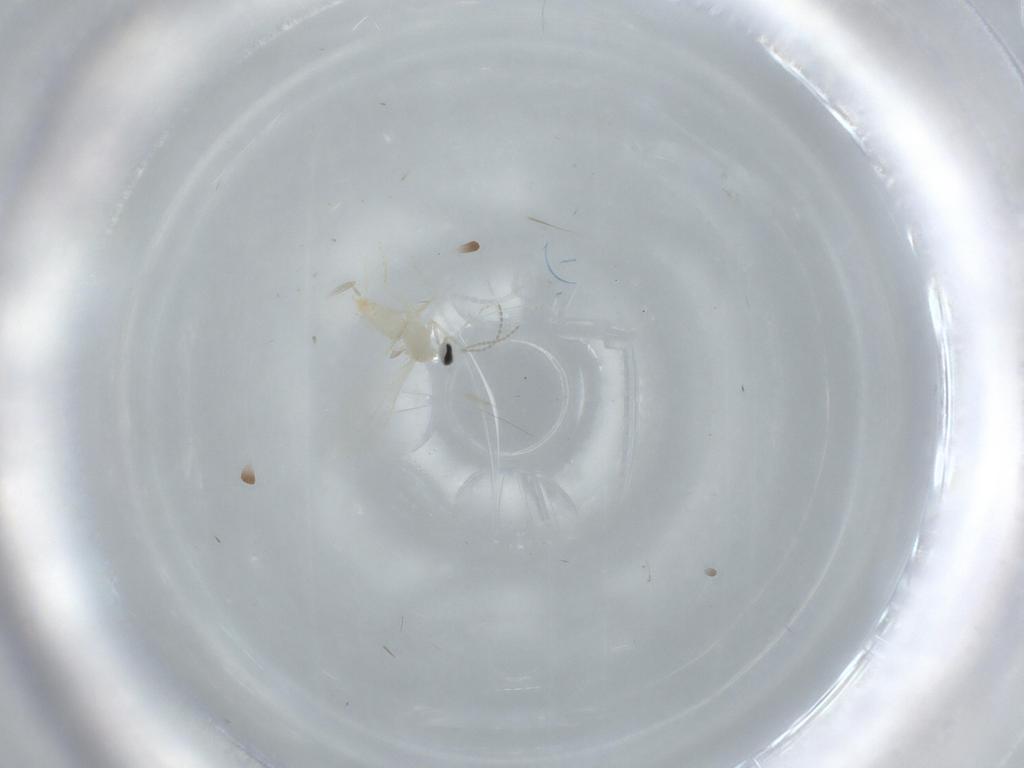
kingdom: Animalia
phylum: Arthropoda
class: Insecta
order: Diptera
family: Cecidomyiidae
